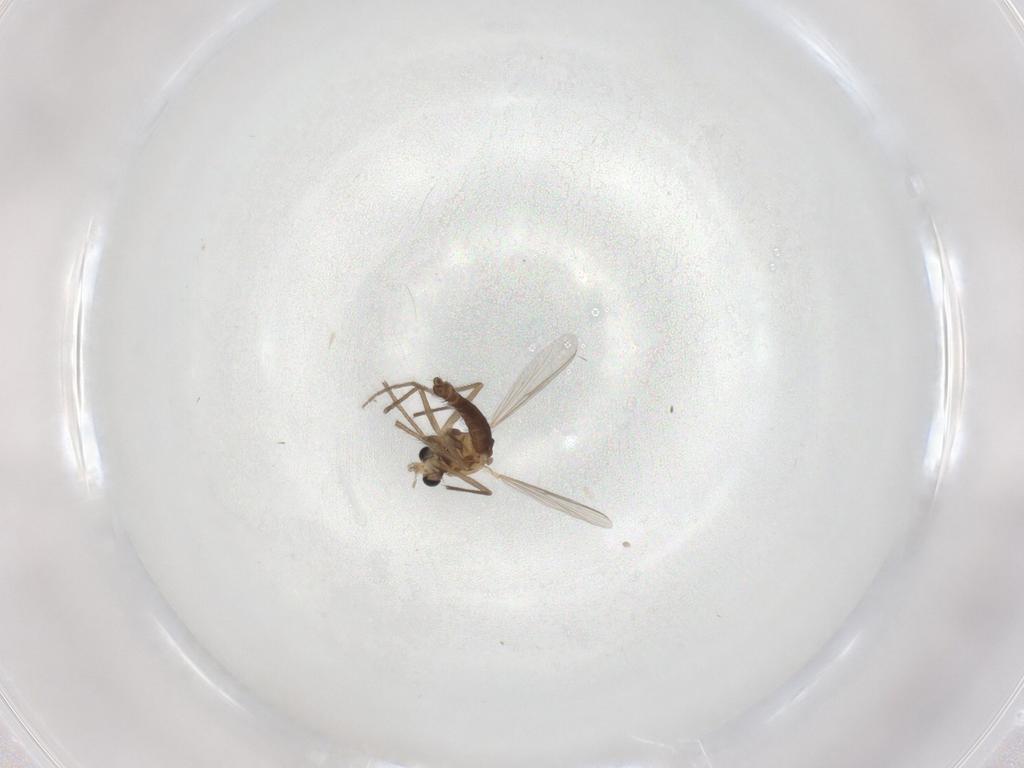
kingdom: Animalia
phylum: Arthropoda
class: Insecta
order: Diptera
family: Chironomidae
